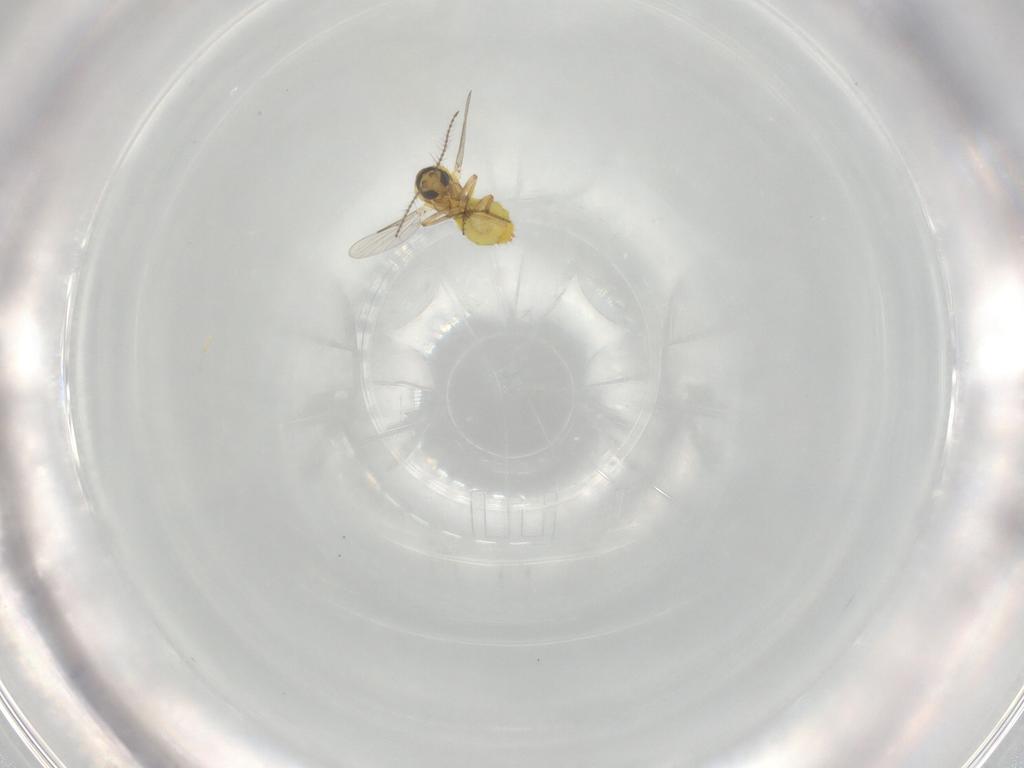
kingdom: Animalia
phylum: Arthropoda
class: Insecta
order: Diptera
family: Ceratopogonidae
